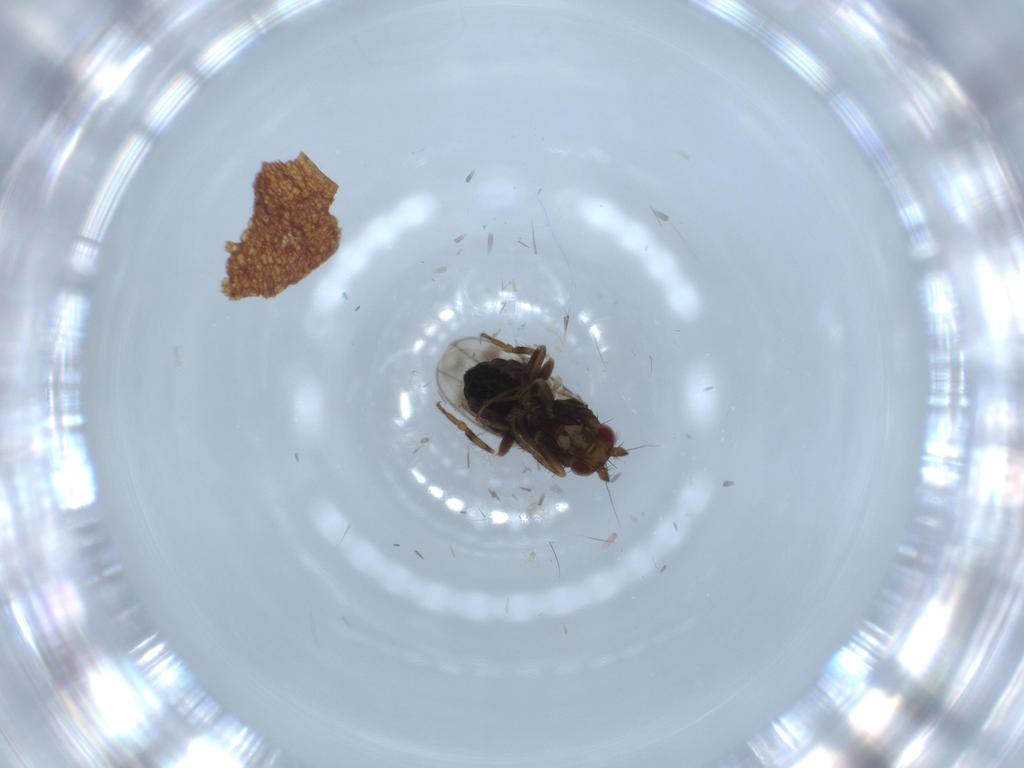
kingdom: Animalia
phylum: Arthropoda
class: Insecta
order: Diptera
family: Sphaeroceridae
